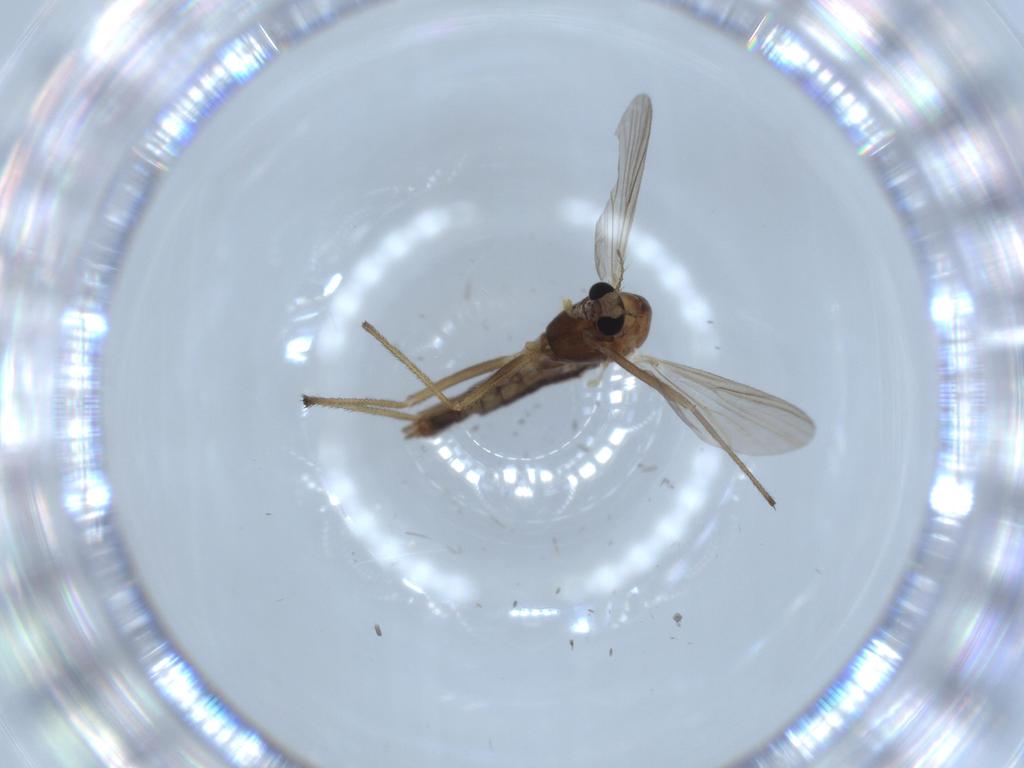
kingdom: Animalia
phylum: Arthropoda
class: Insecta
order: Diptera
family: Chironomidae
